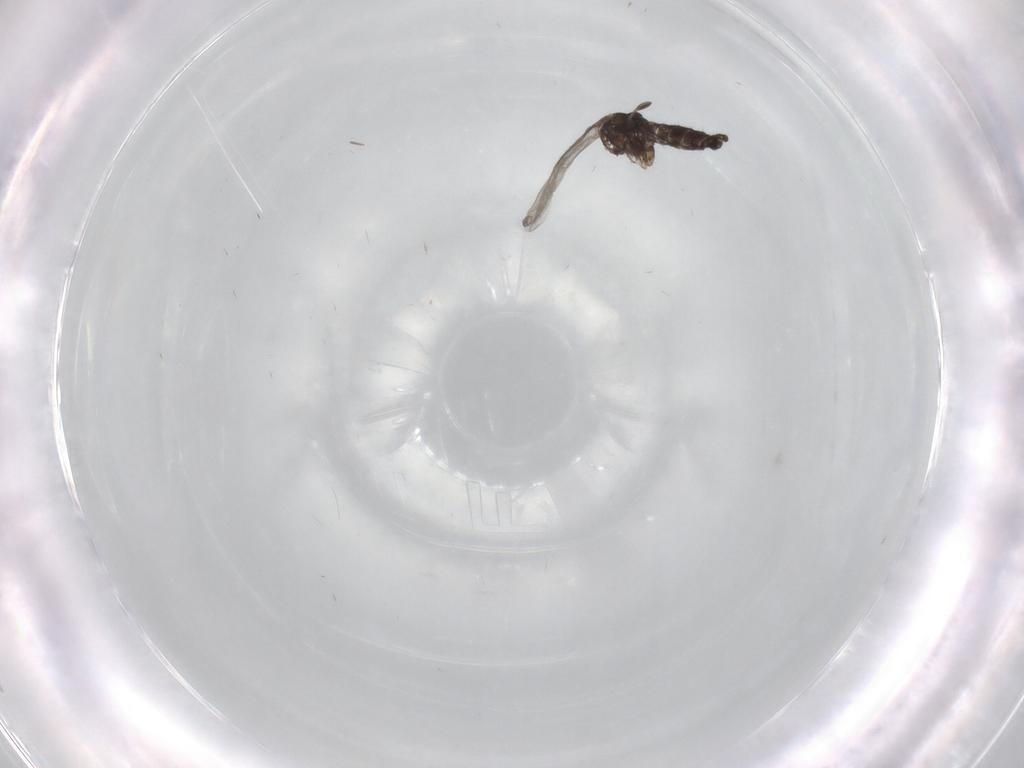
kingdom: Animalia
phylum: Arthropoda
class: Insecta
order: Diptera
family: Sciaridae
